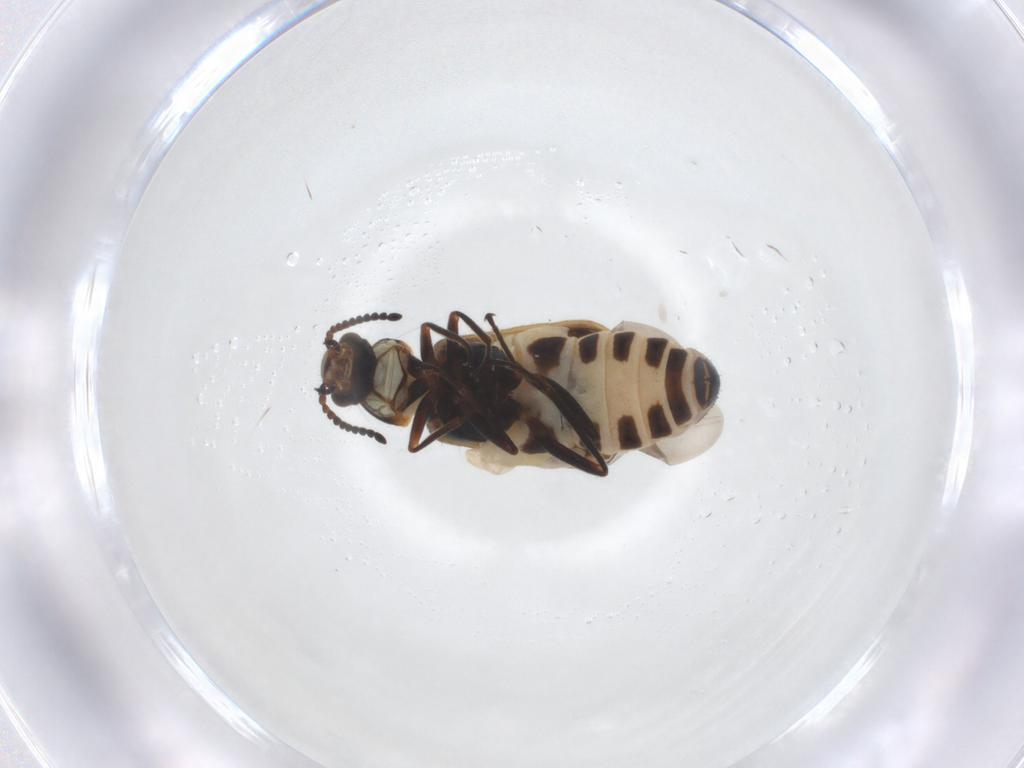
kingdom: Animalia
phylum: Arthropoda
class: Insecta
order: Coleoptera
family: Melyridae
